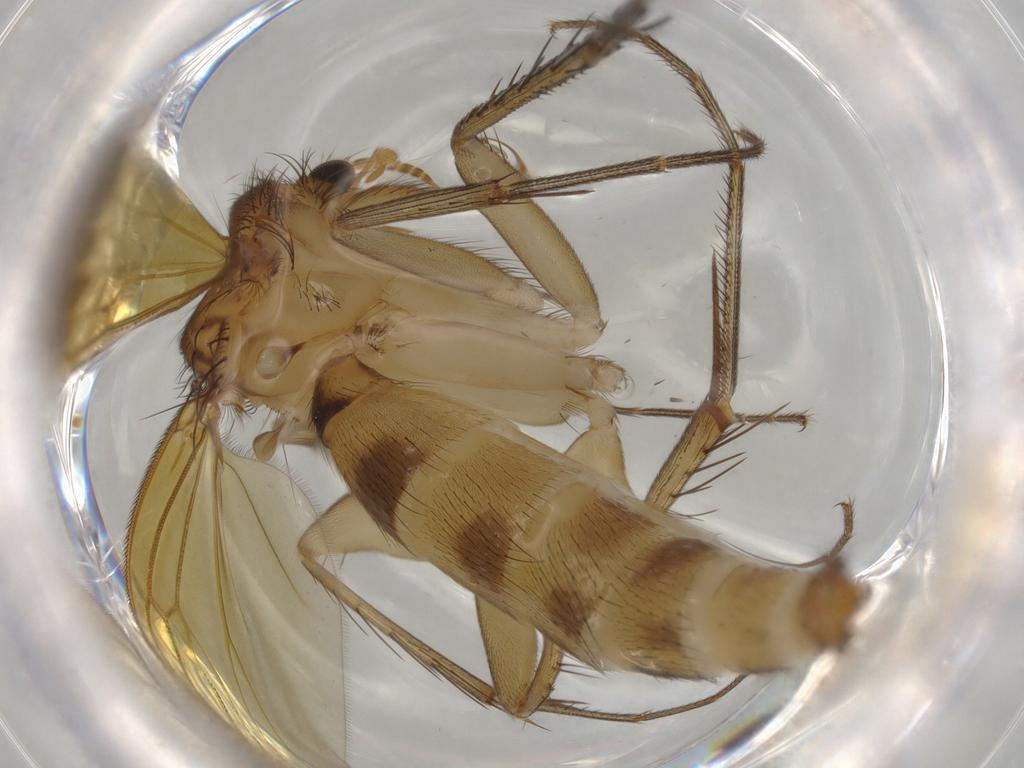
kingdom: Animalia
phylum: Arthropoda
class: Insecta
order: Diptera
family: Mycetophilidae
